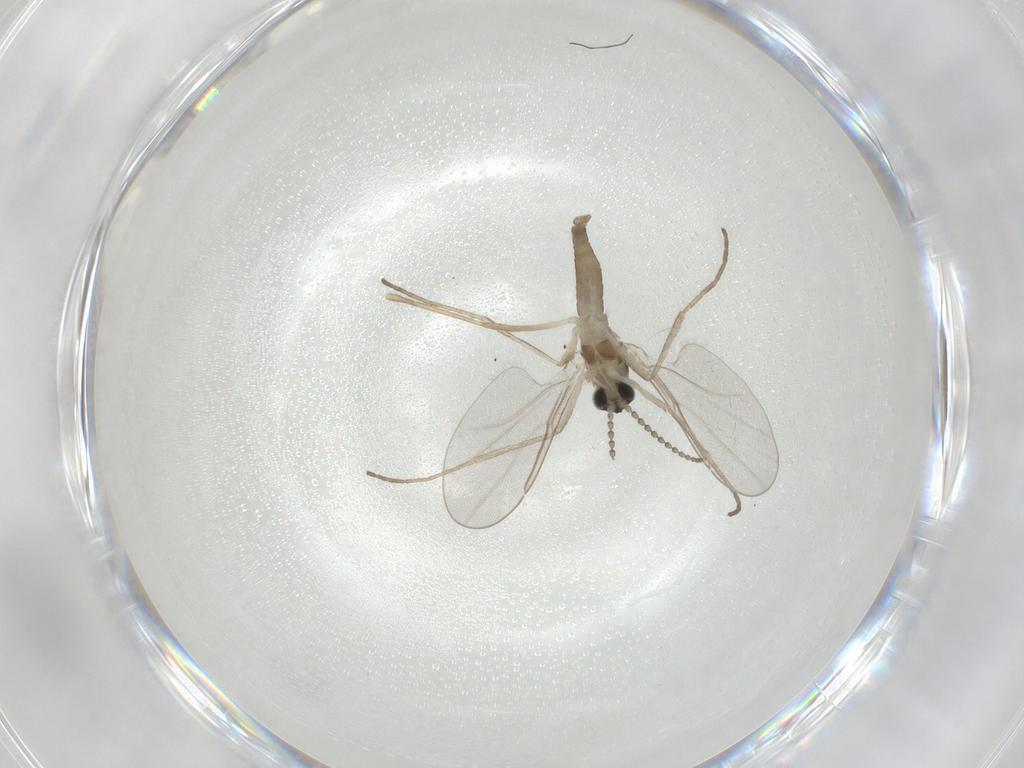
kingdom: Animalia
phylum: Arthropoda
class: Insecta
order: Diptera
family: Cecidomyiidae
